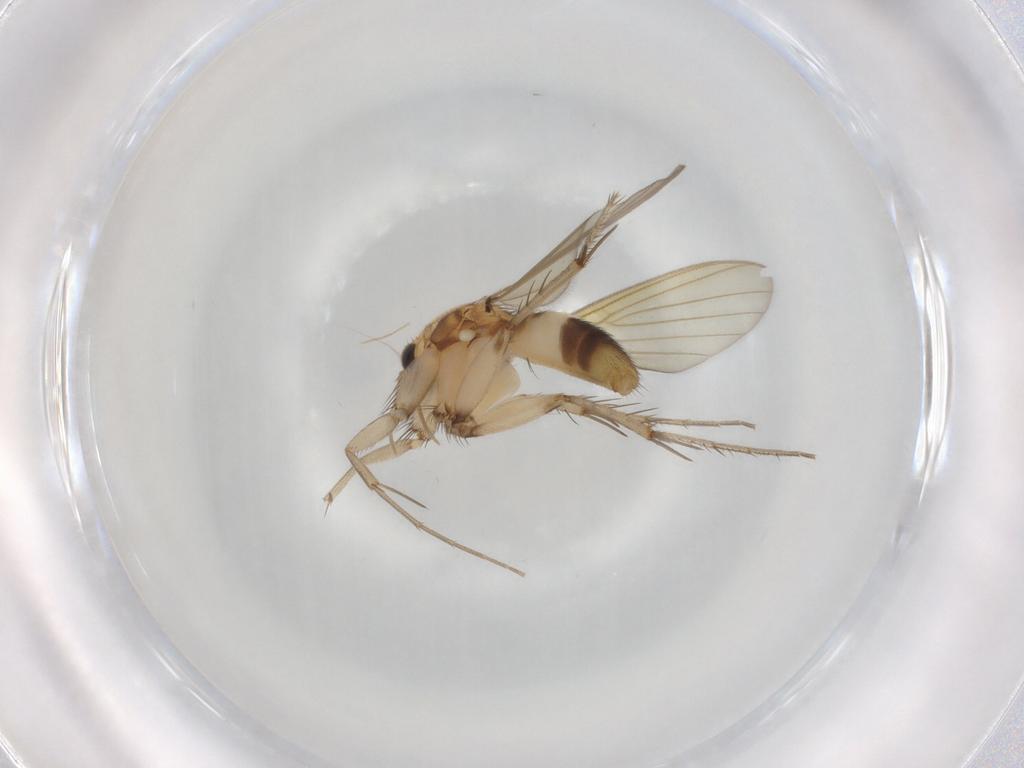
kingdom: Animalia
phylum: Arthropoda
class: Insecta
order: Diptera
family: Mycetophilidae
